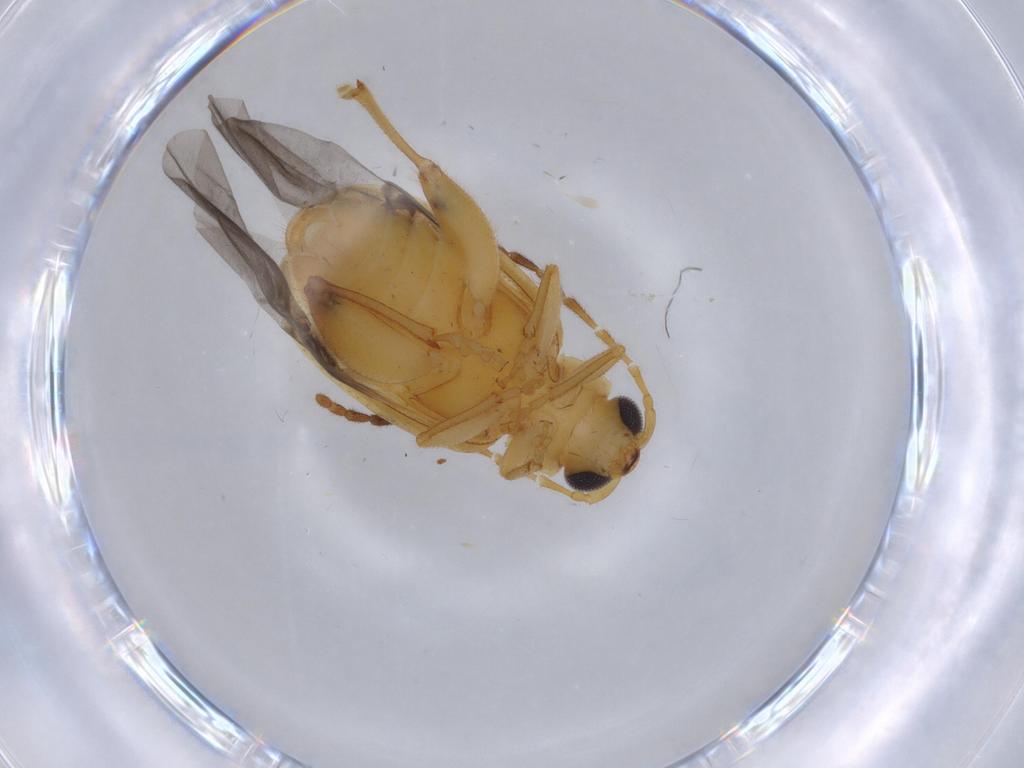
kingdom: Animalia
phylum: Arthropoda
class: Insecta
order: Coleoptera
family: Chrysomelidae
